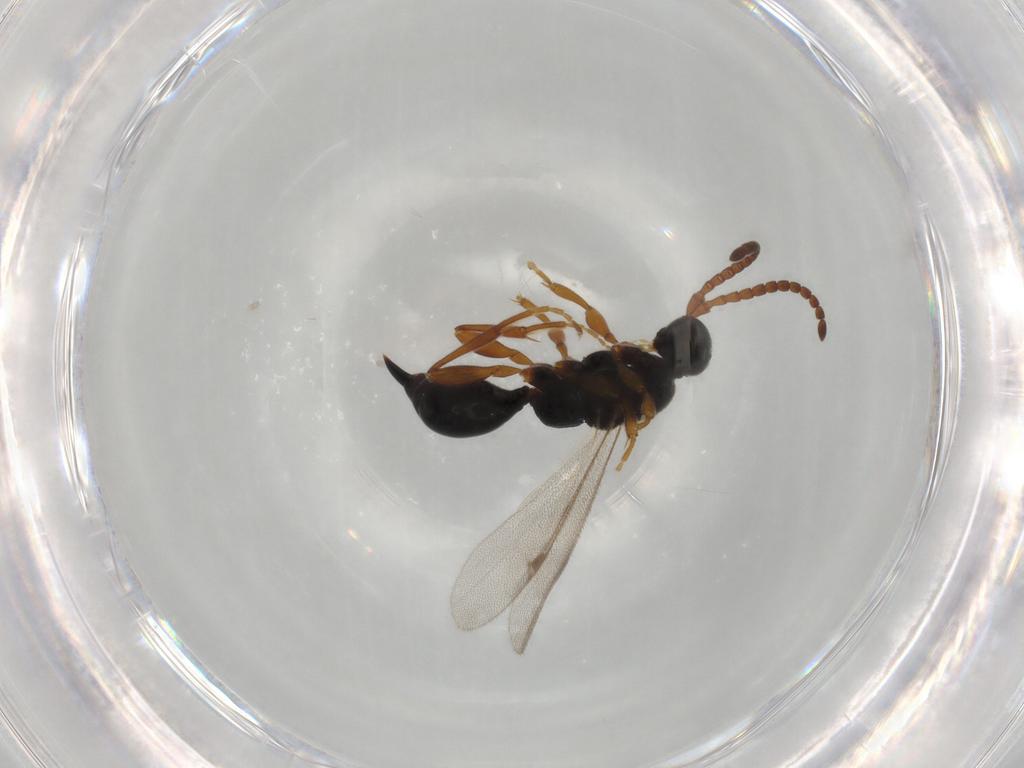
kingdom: Animalia
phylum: Arthropoda
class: Insecta
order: Hymenoptera
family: Proctotrupidae
